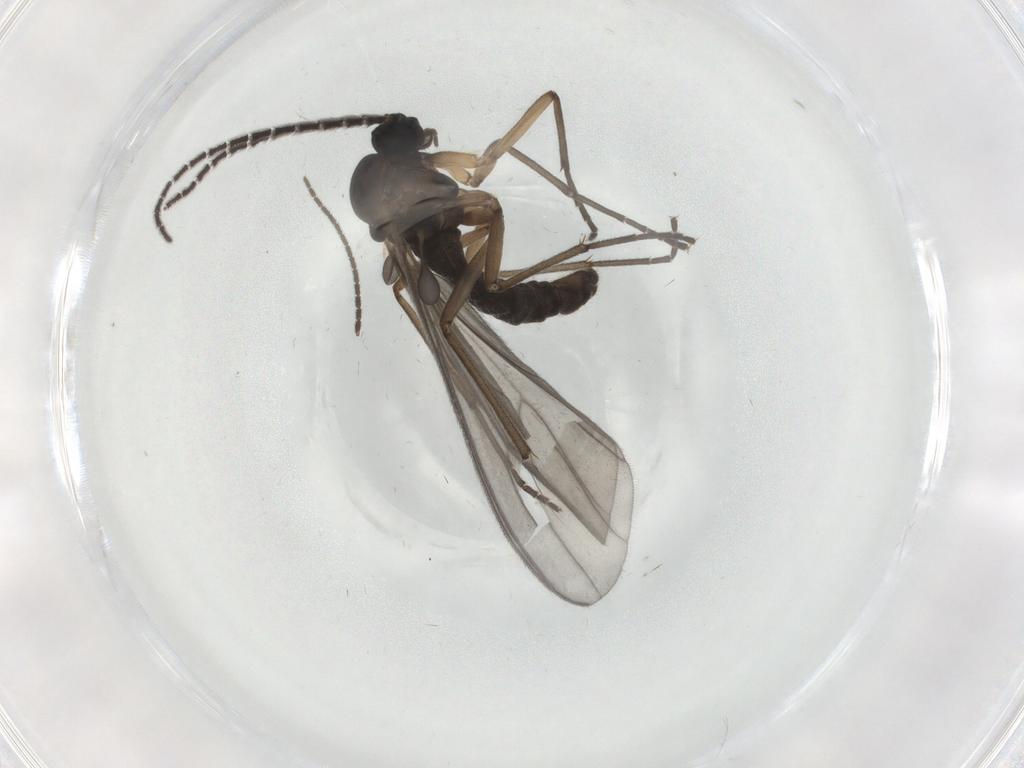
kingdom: Animalia
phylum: Arthropoda
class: Insecta
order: Diptera
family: Sciaridae
